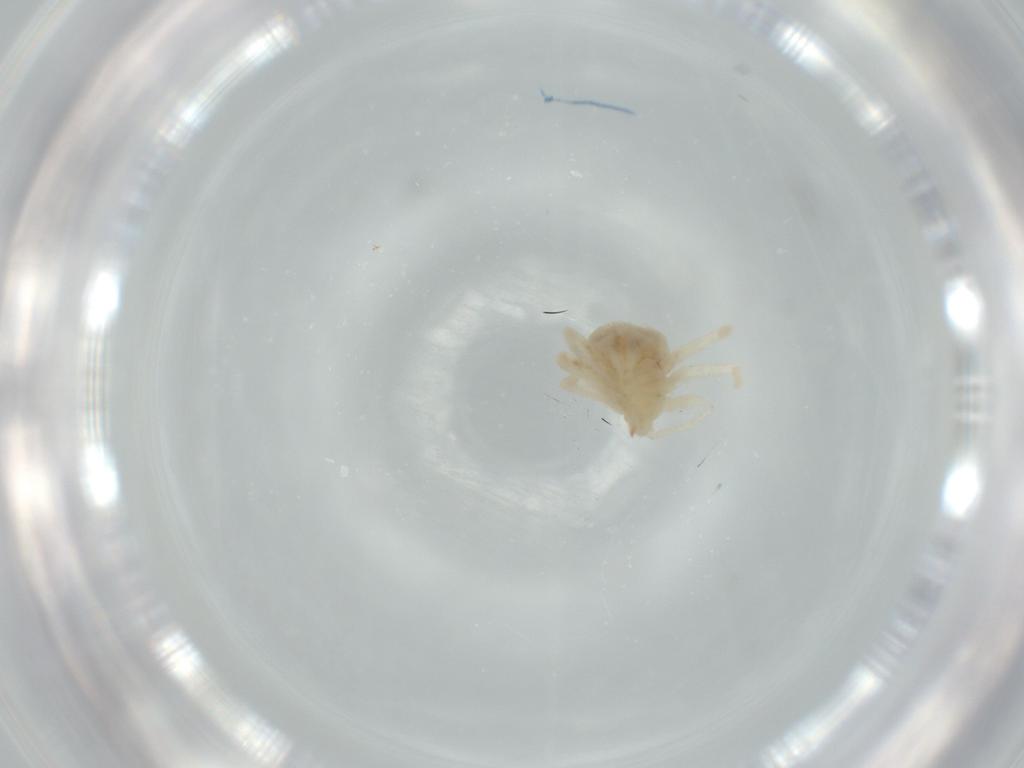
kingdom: Animalia
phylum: Arthropoda
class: Arachnida
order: Trombidiformes
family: Anystidae
